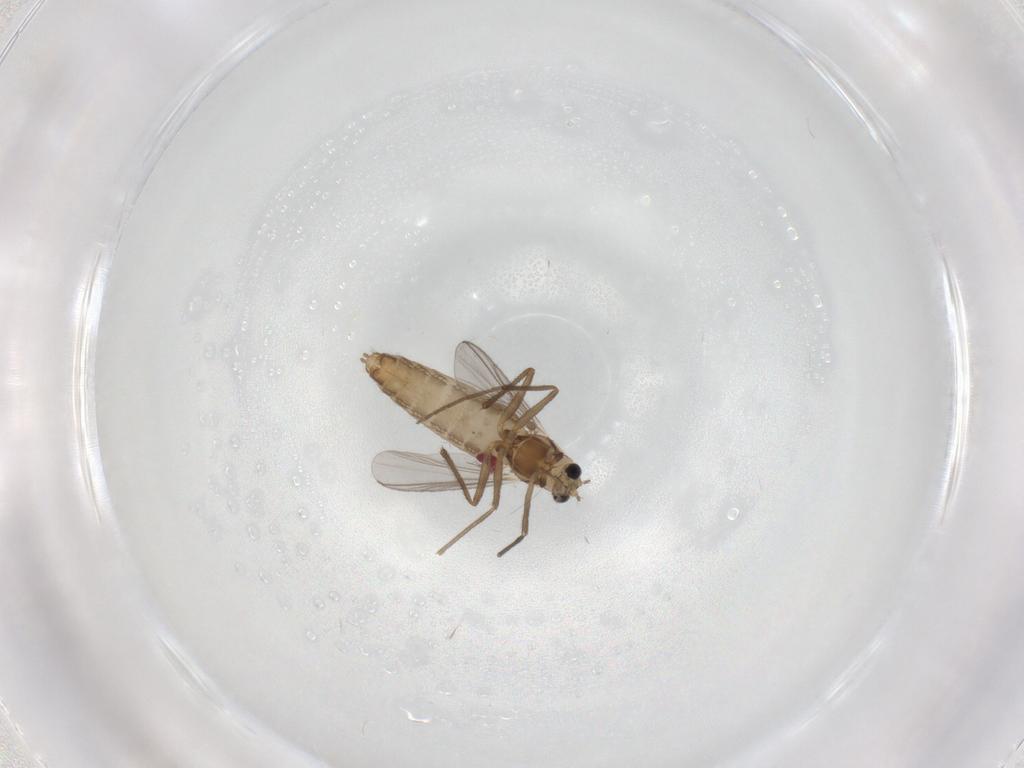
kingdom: Animalia
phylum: Arthropoda
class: Insecta
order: Diptera
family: Chironomidae
